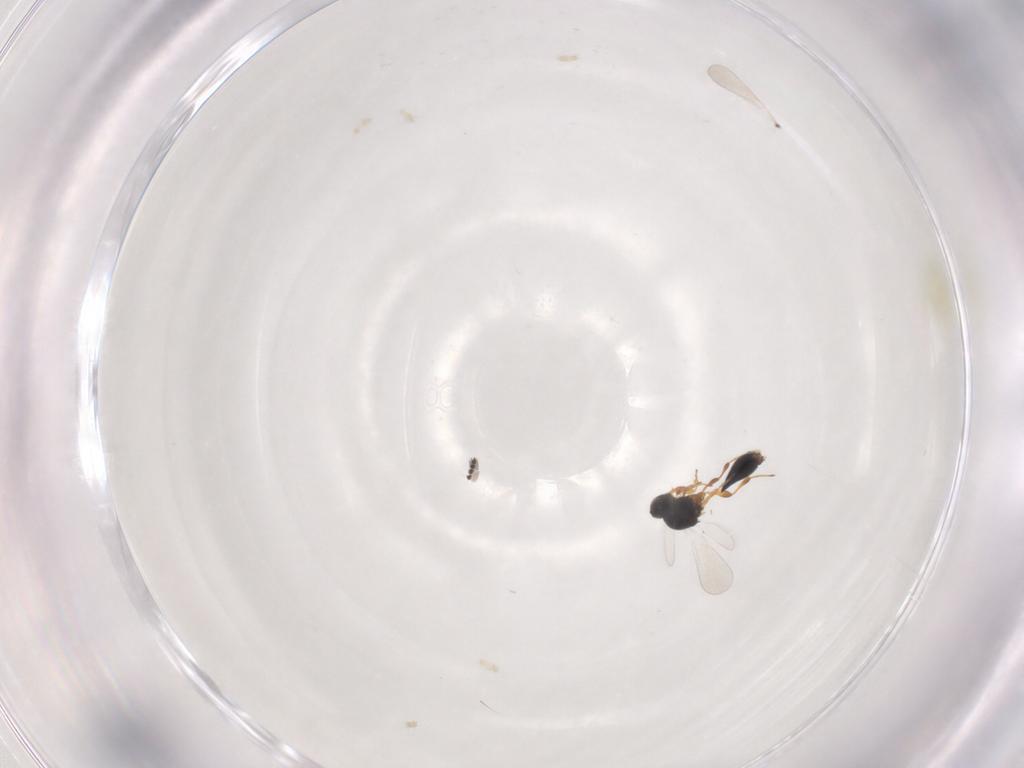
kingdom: Animalia
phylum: Arthropoda
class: Insecta
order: Hymenoptera
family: Platygastridae
